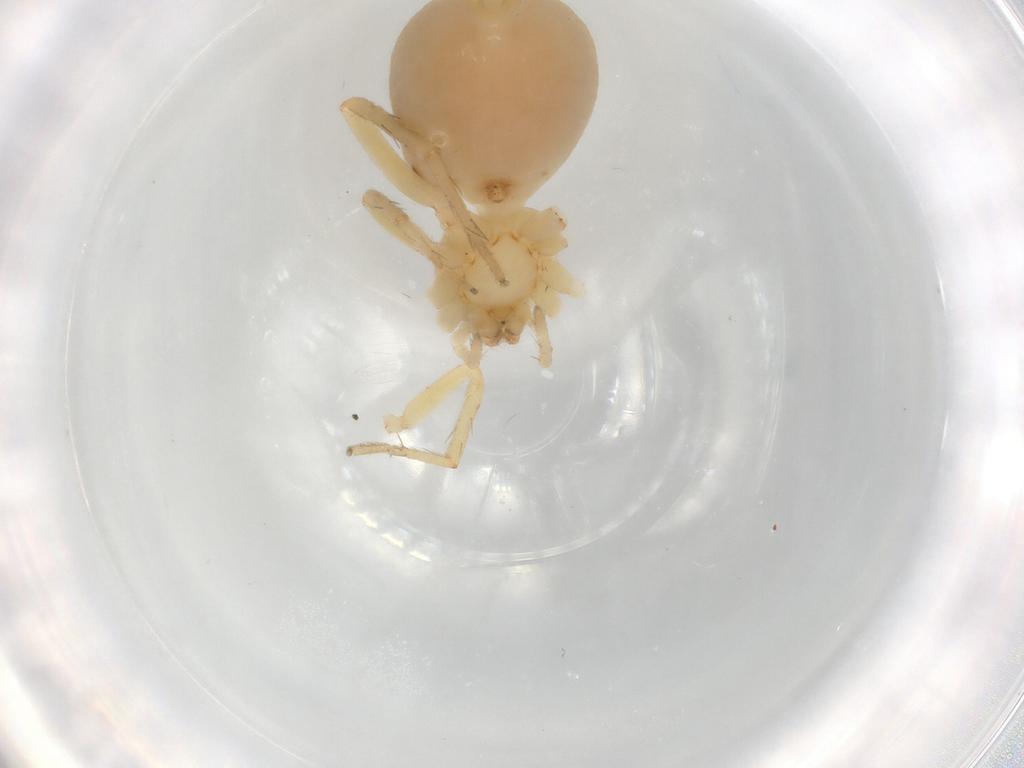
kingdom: Animalia
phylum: Arthropoda
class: Arachnida
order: Araneae
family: Gnaphosidae
